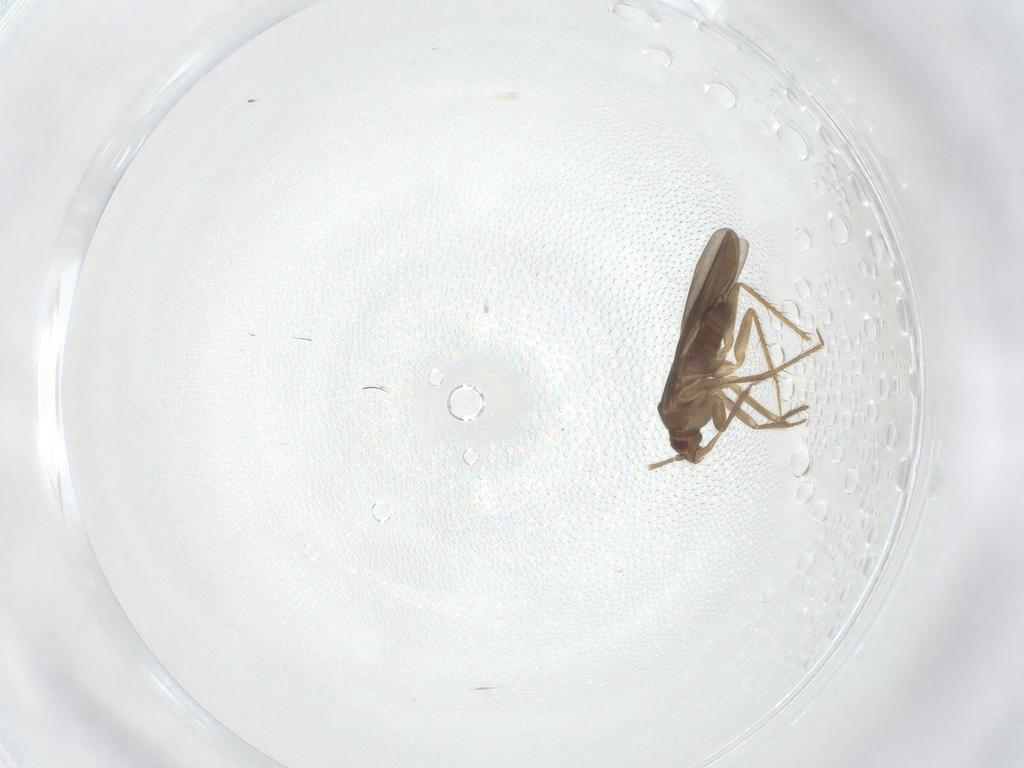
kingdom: Animalia
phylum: Arthropoda
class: Insecta
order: Hemiptera
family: Ceratocombidae
